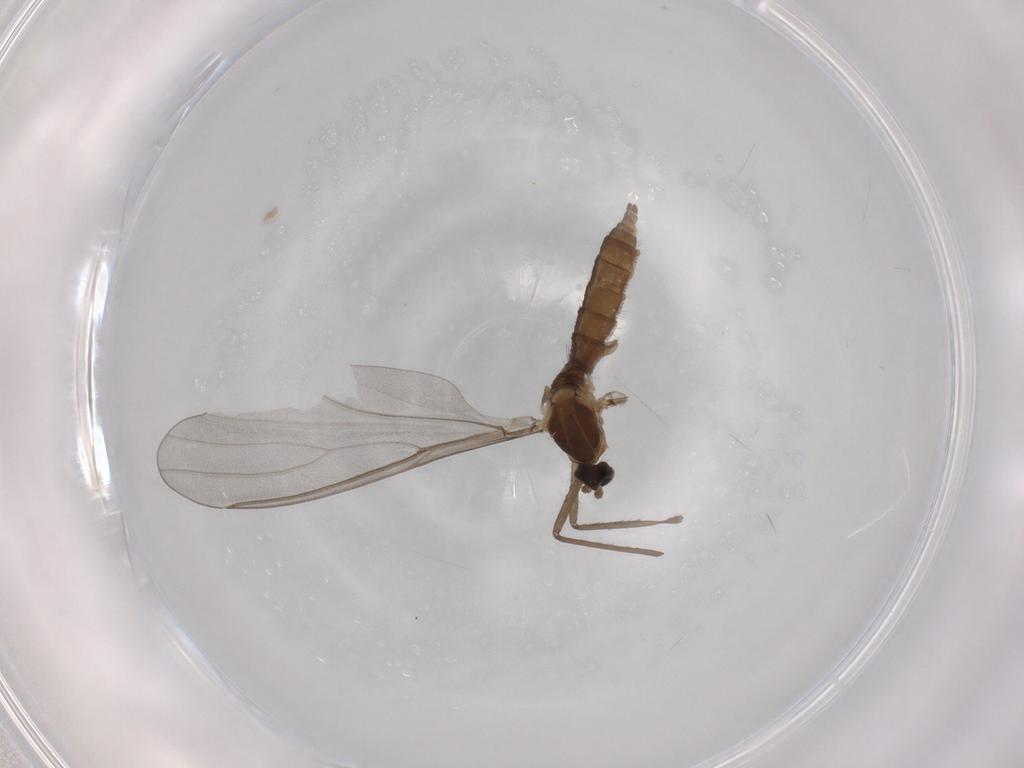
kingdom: Animalia
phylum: Arthropoda
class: Insecta
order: Diptera
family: Cecidomyiidae
